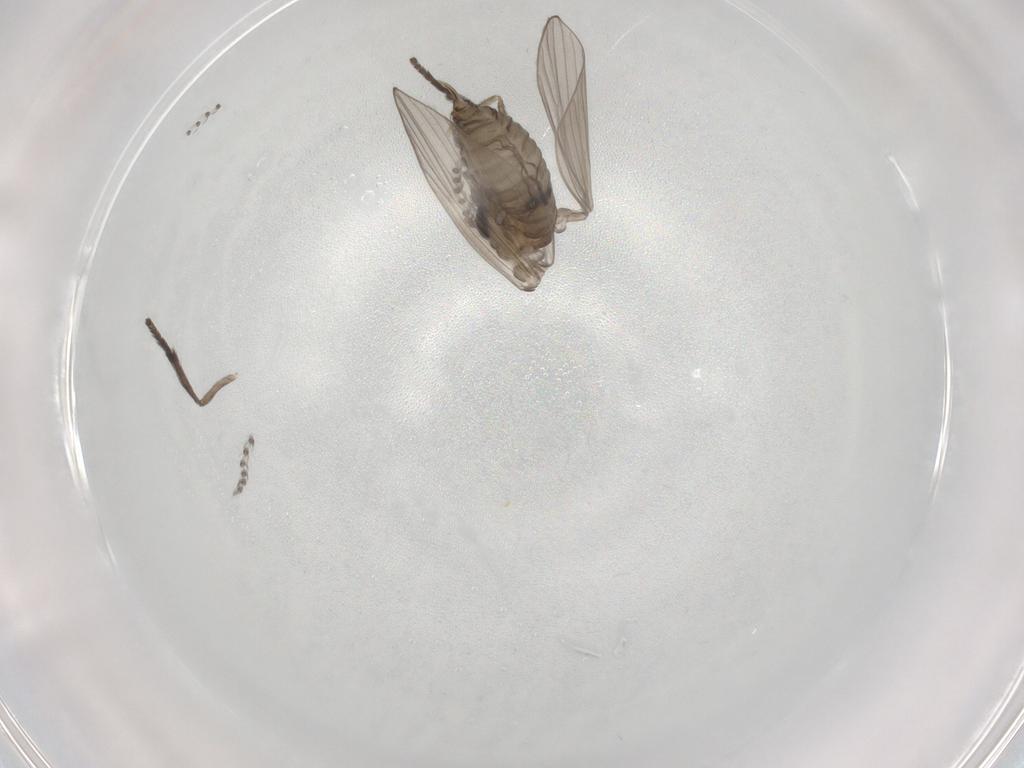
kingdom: Animalia
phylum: Arthropoda
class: Insecta
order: Diptera
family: Psychodidae
